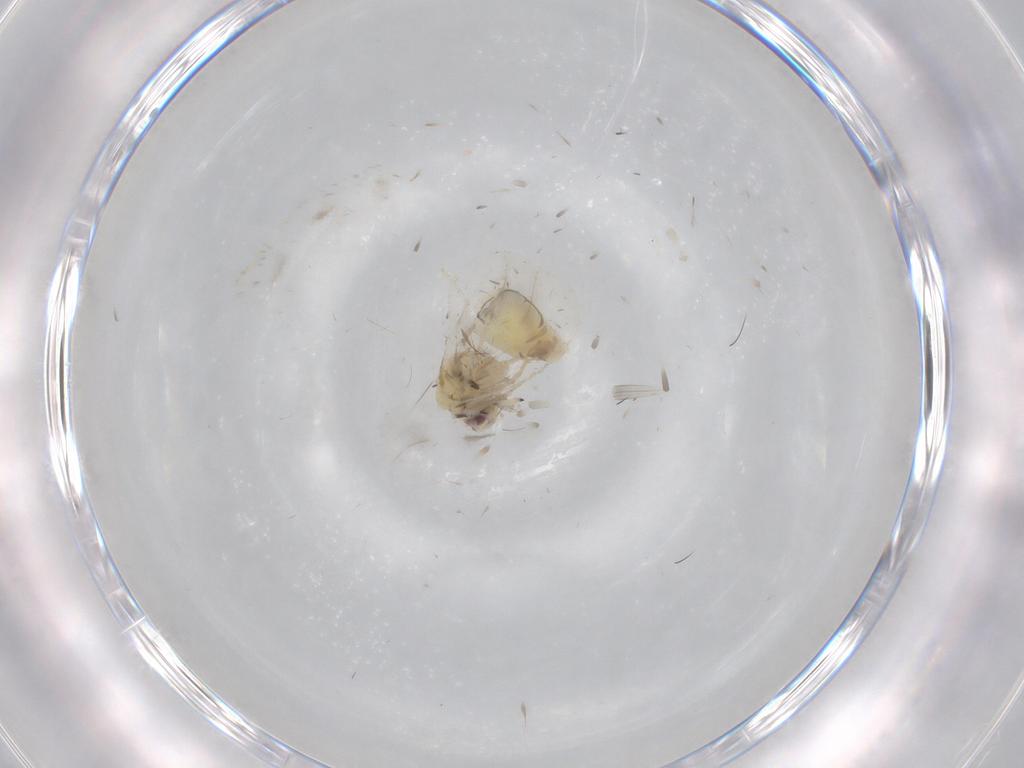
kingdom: Animalia
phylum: Arthropoda
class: Insecta
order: Hemiptera
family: Aleyrodidae
